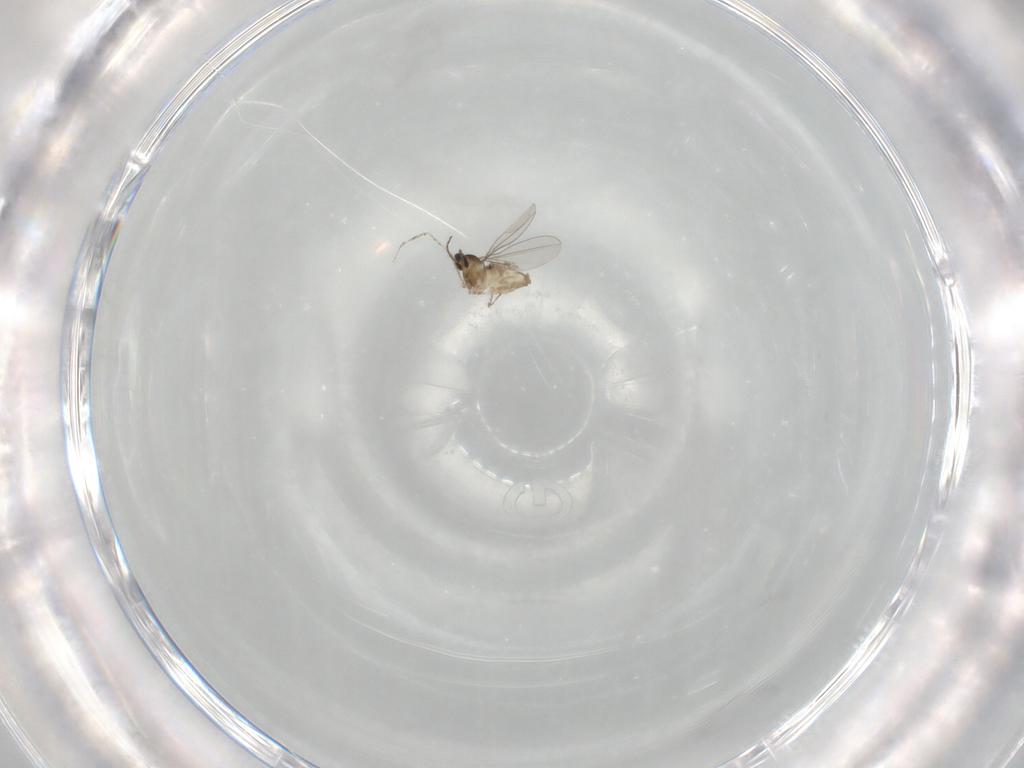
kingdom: Animalia
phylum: Arthropoda
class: Insecta
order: Diptera
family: Cecidomyiidae
